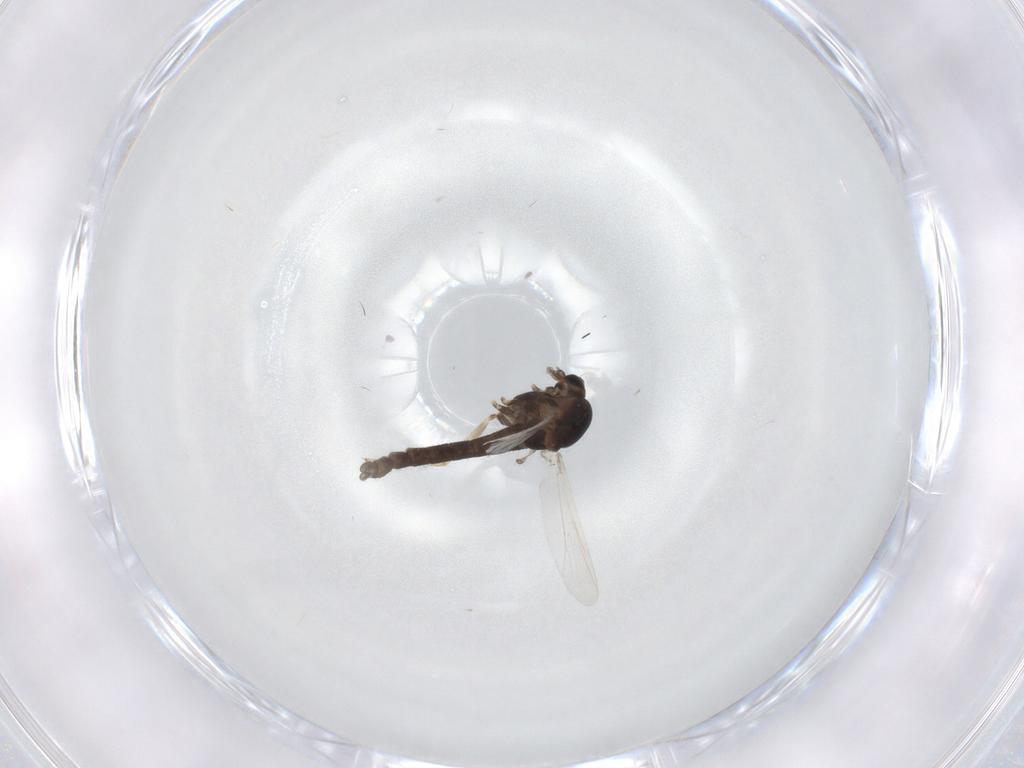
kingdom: Animalia
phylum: Arthropoda
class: Insecta
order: Diptera
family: Chironomidae
